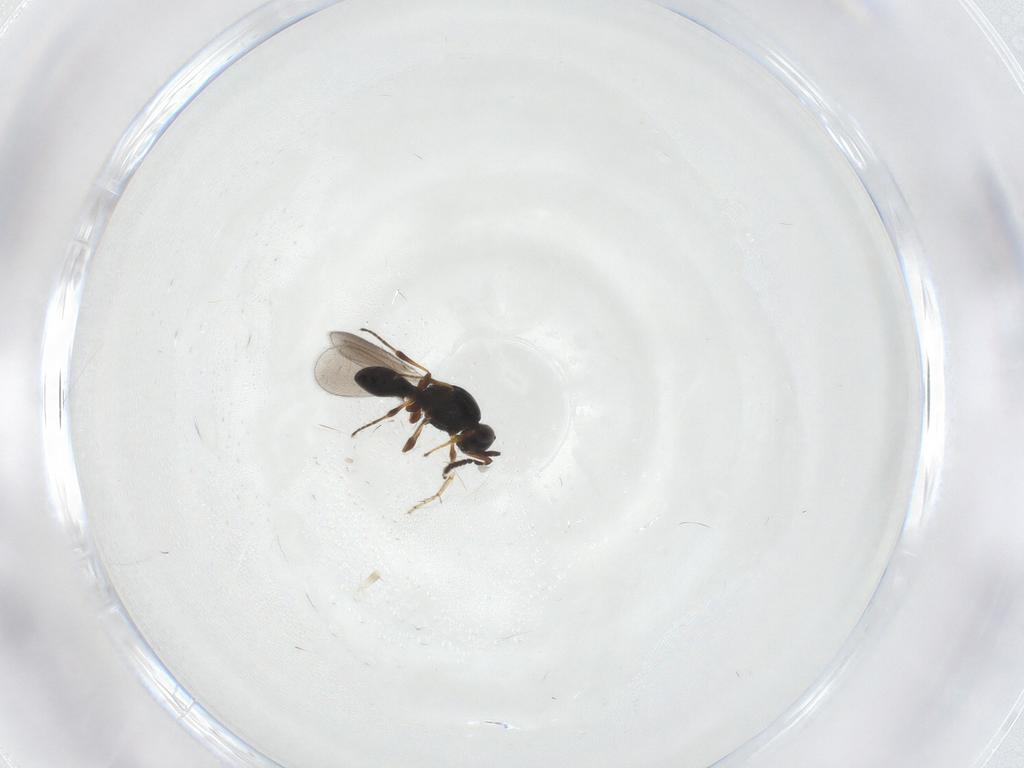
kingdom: Animalia
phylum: Arthropoda
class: Insecta
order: Hymenoptera
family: Platygastridae
